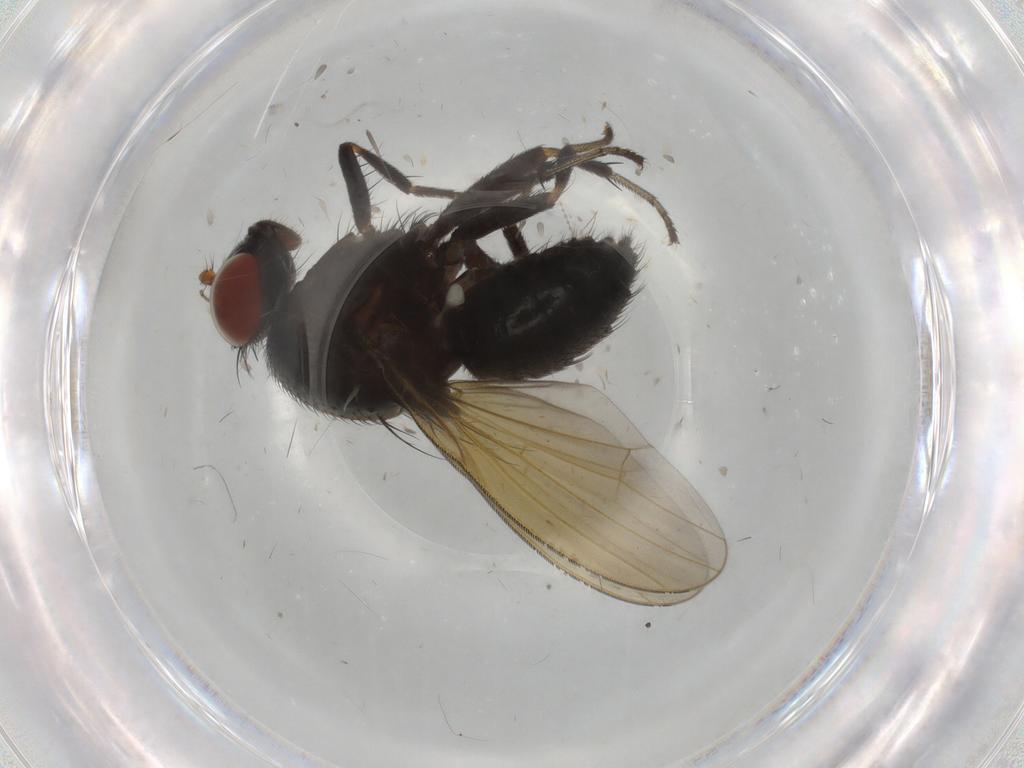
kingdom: Animalia
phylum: Arthropoda
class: Insecta
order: Diptera
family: Lauxaniidae
